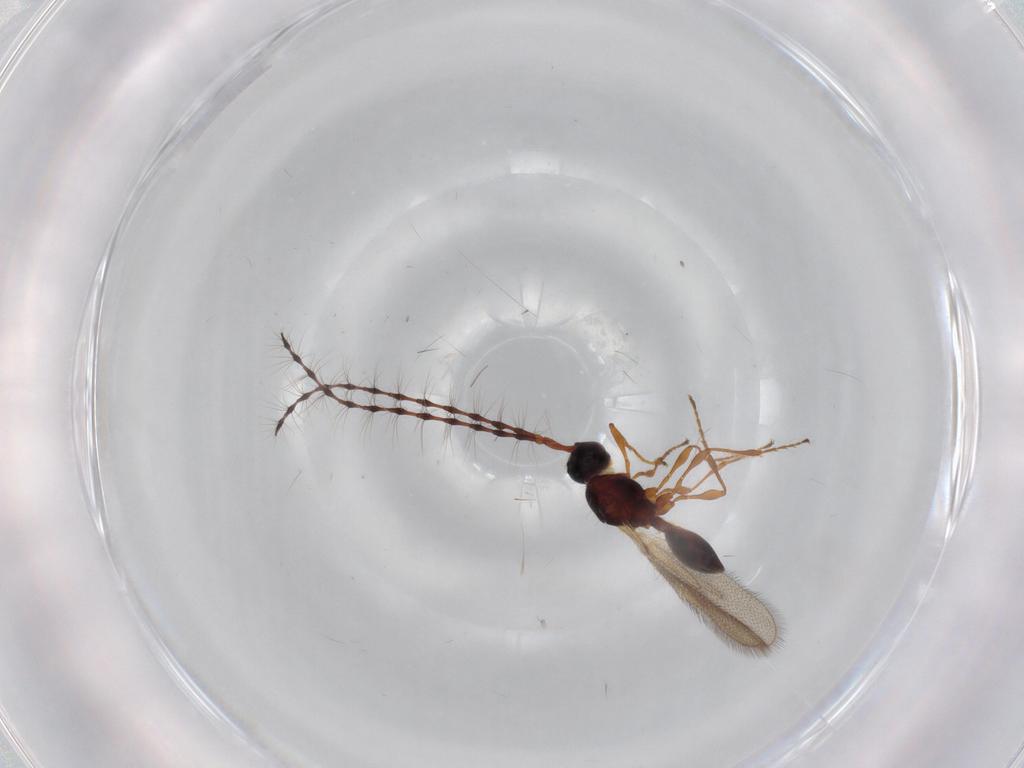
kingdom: Animalia
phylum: Arthropoda
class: Insecta
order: Hymenoptera
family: Diapriidae
